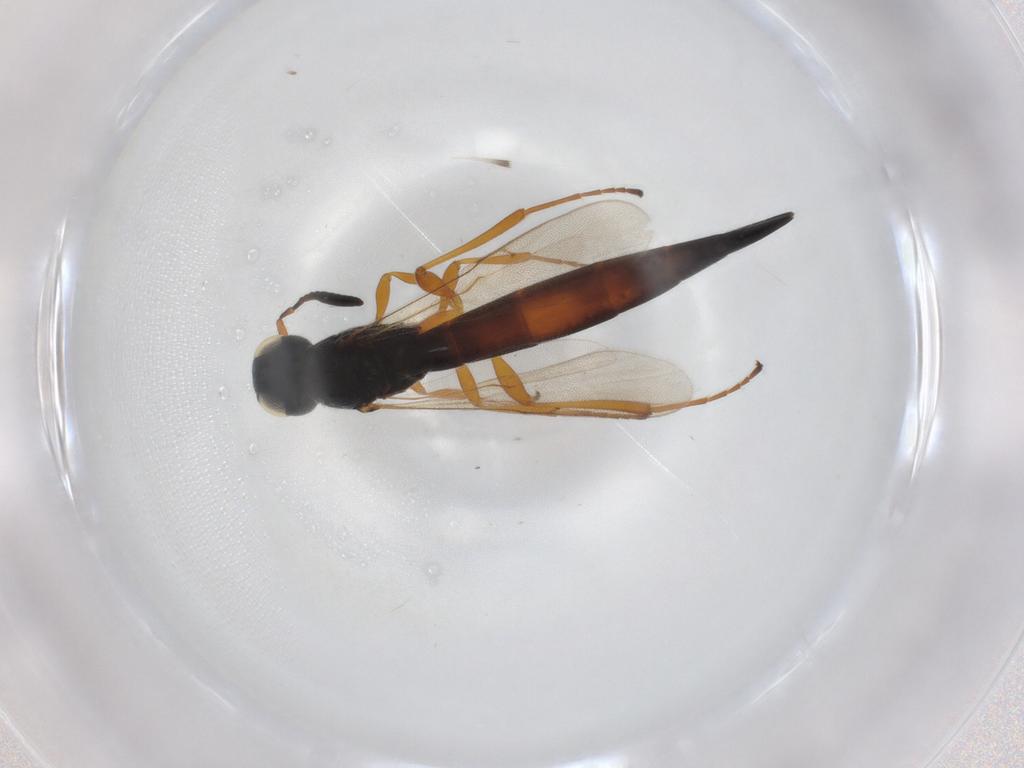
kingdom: Animalia
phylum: Arthropoda
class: Insecta
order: Hymenoptera
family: Scelionidae
